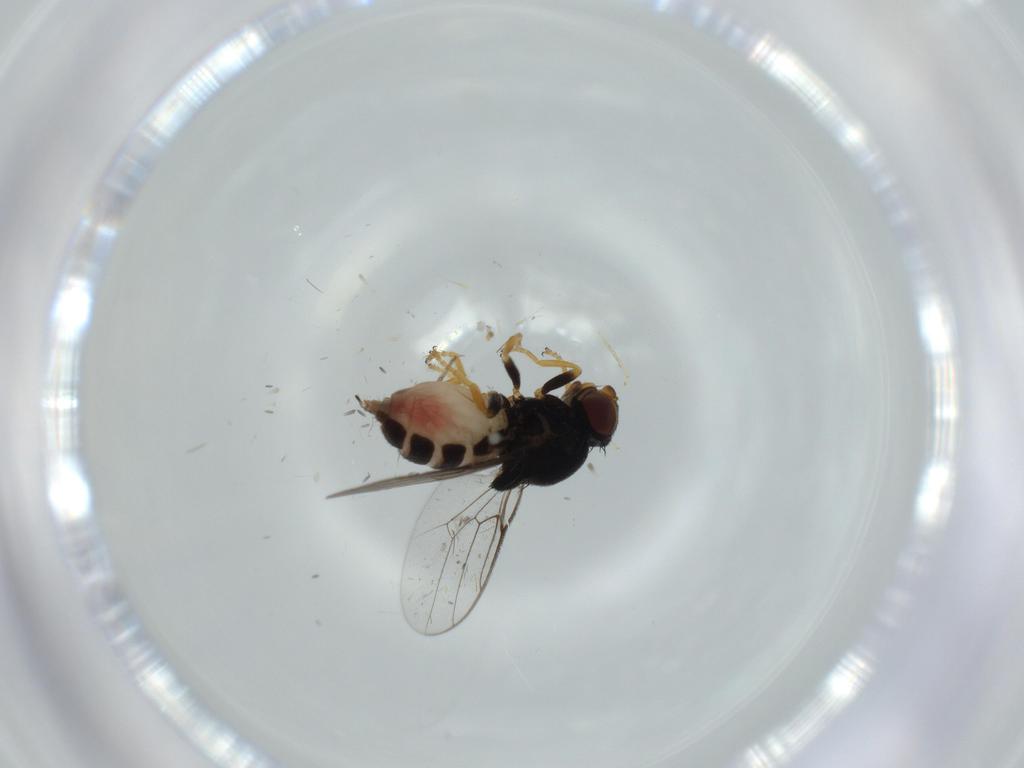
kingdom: Animalia
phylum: Arthropoda
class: Insecta
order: Diptera
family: Chloropidae
